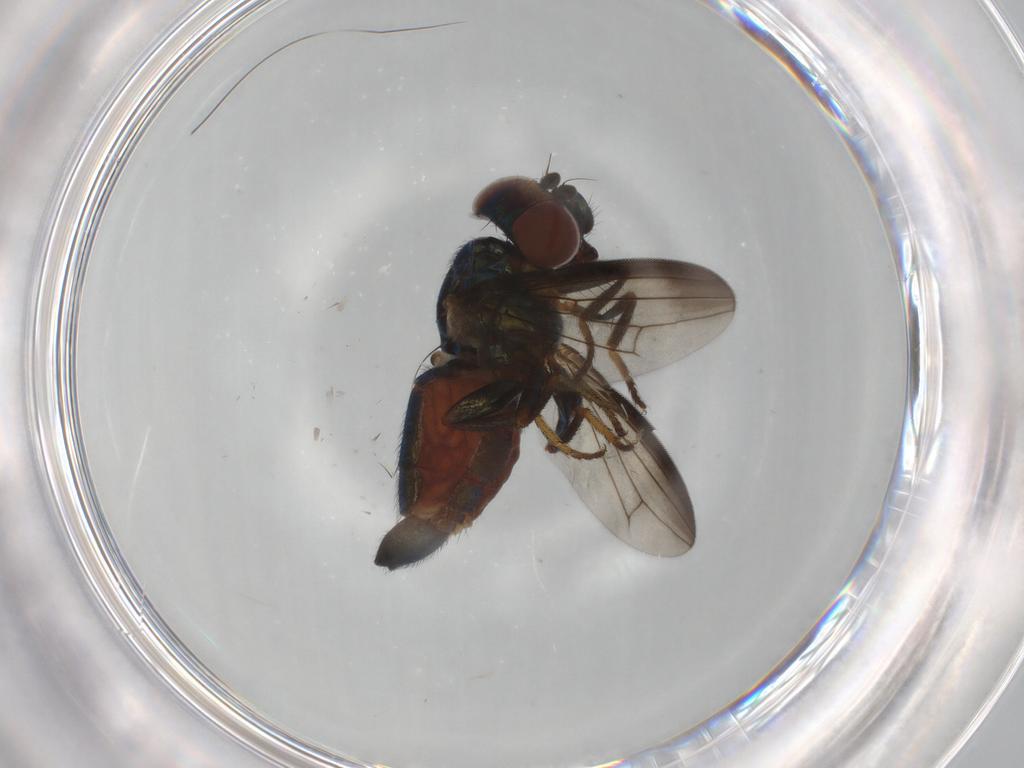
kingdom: Animalia
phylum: Arthropoda
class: Insecta
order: Diptera
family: Ulidiidae
